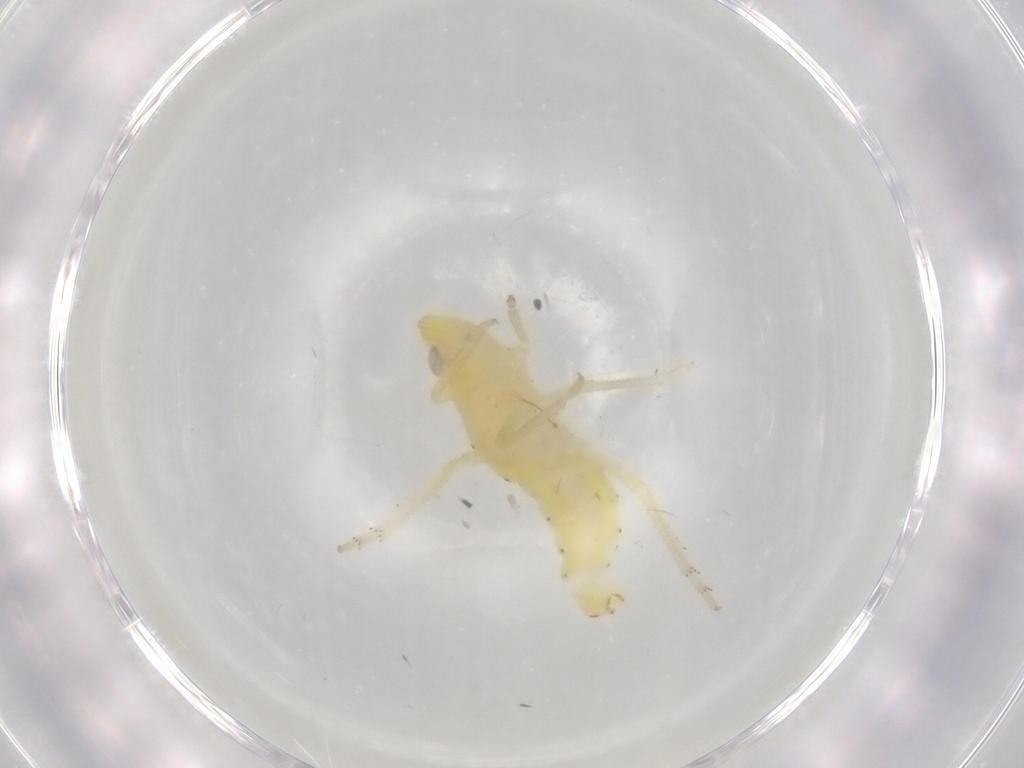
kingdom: Animalia
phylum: Arthropoda
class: Insecta
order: Hemiptera
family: Tropiduchidae
